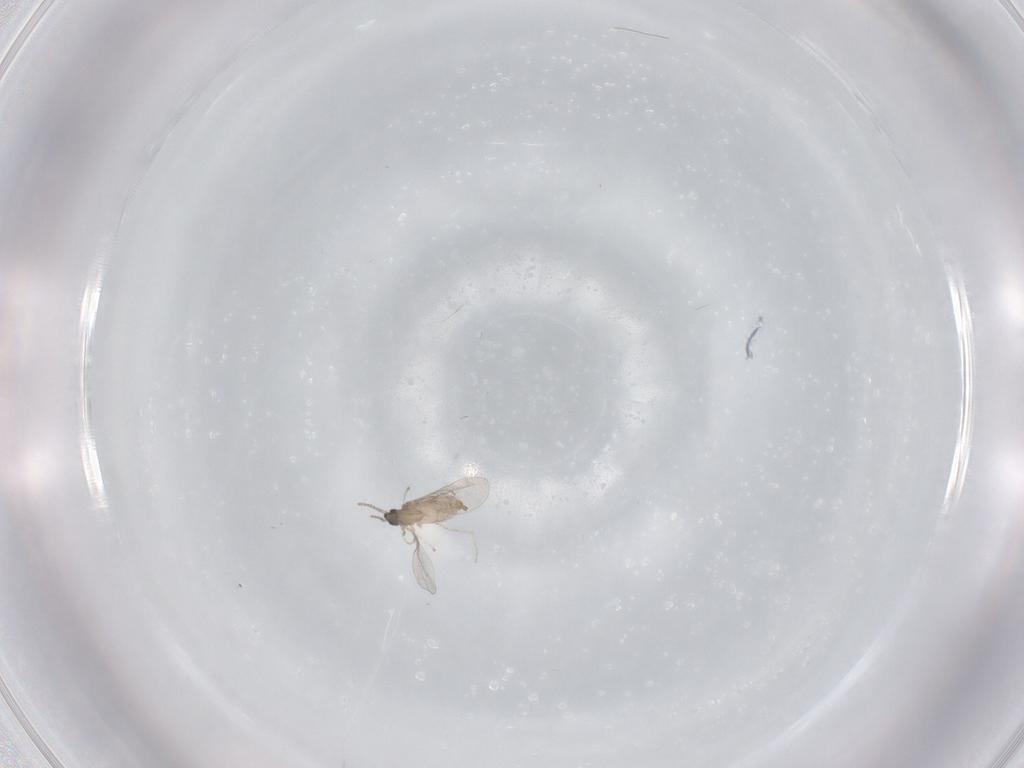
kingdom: Animalia
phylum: Arthropoda
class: Insecta
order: Diptera
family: Cecidomyiidae
